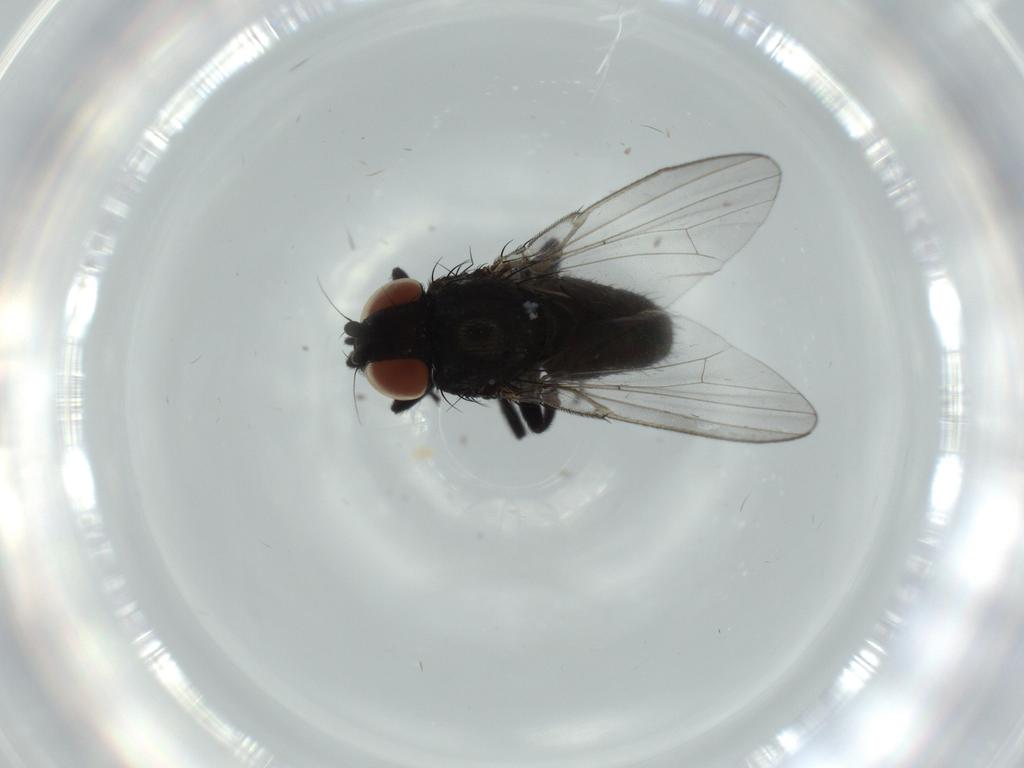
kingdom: Animalia
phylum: Arthropoda
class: Insecta
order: Diptera
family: Milichiidae
